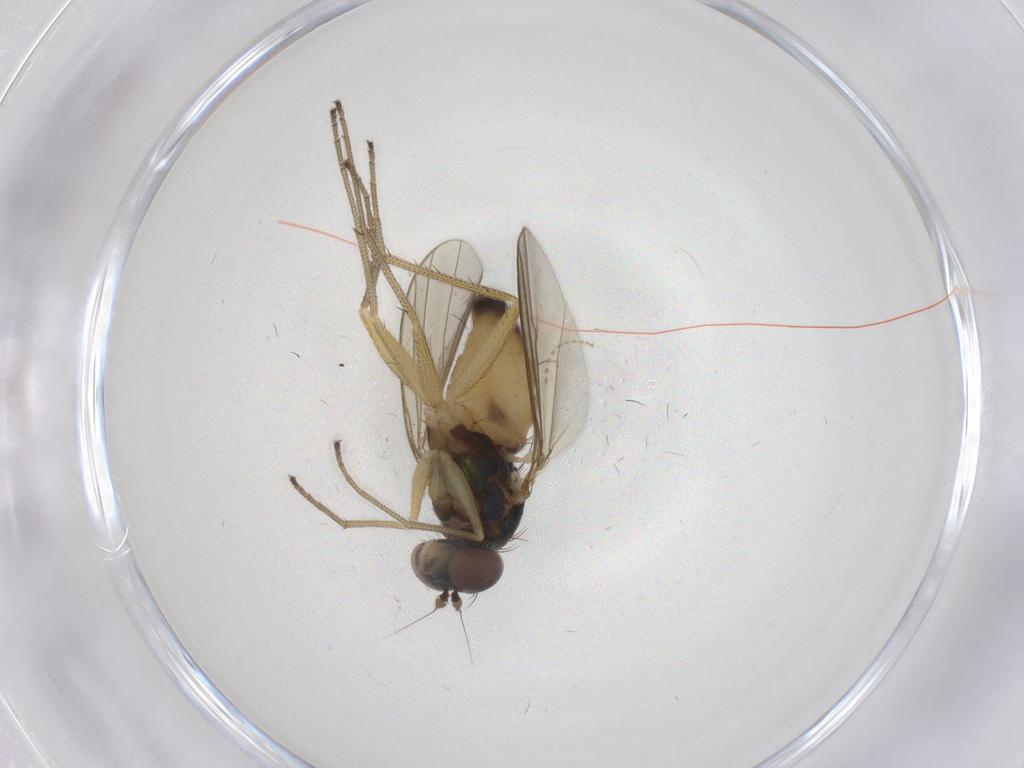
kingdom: Animalia
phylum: Arthropoda
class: Insecta
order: Diptera
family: Dolichopodidae
